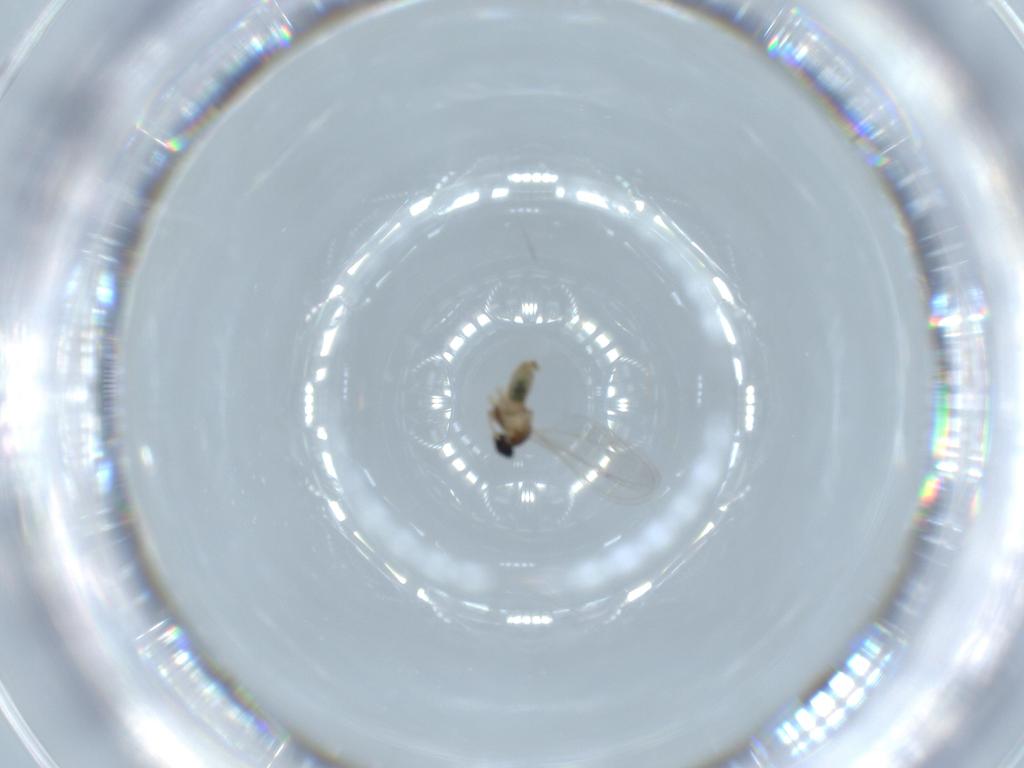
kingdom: Animalia
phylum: Arthropoda
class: Insecta
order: Diptera
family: Cecidomyiidae
